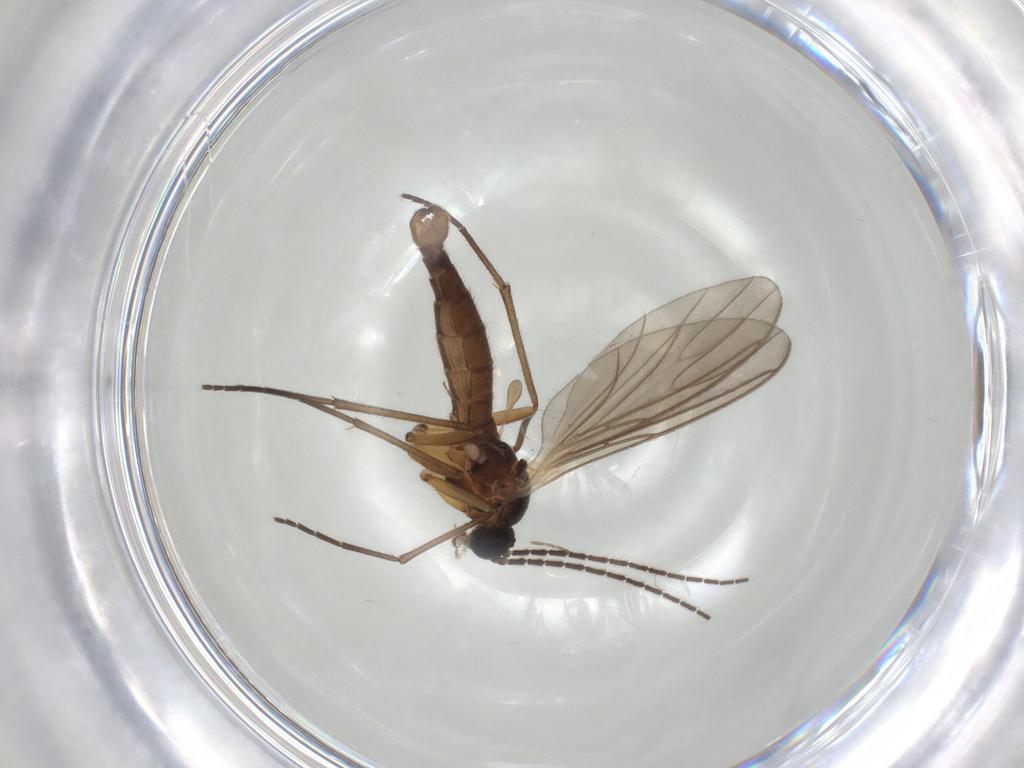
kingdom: Animalia
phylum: Arthropoda
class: Insecta
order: Diptera
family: Sciaridae
